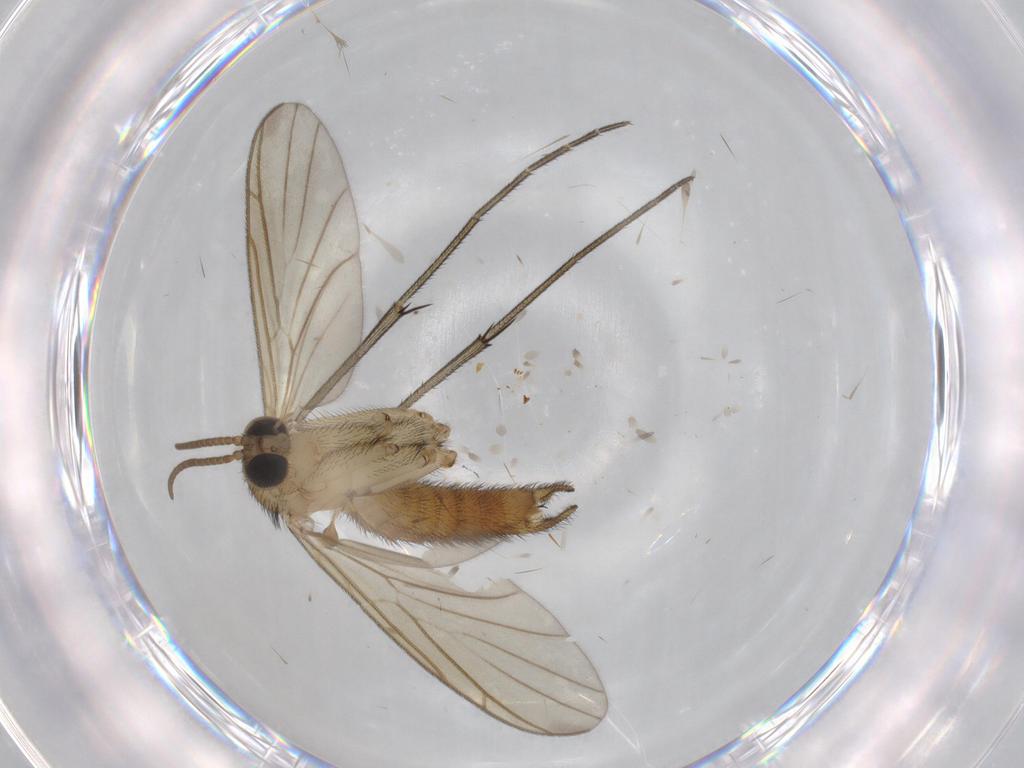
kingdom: Animalia
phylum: Arthropoda
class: Insecta
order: Diptera
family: Keroplatidae
